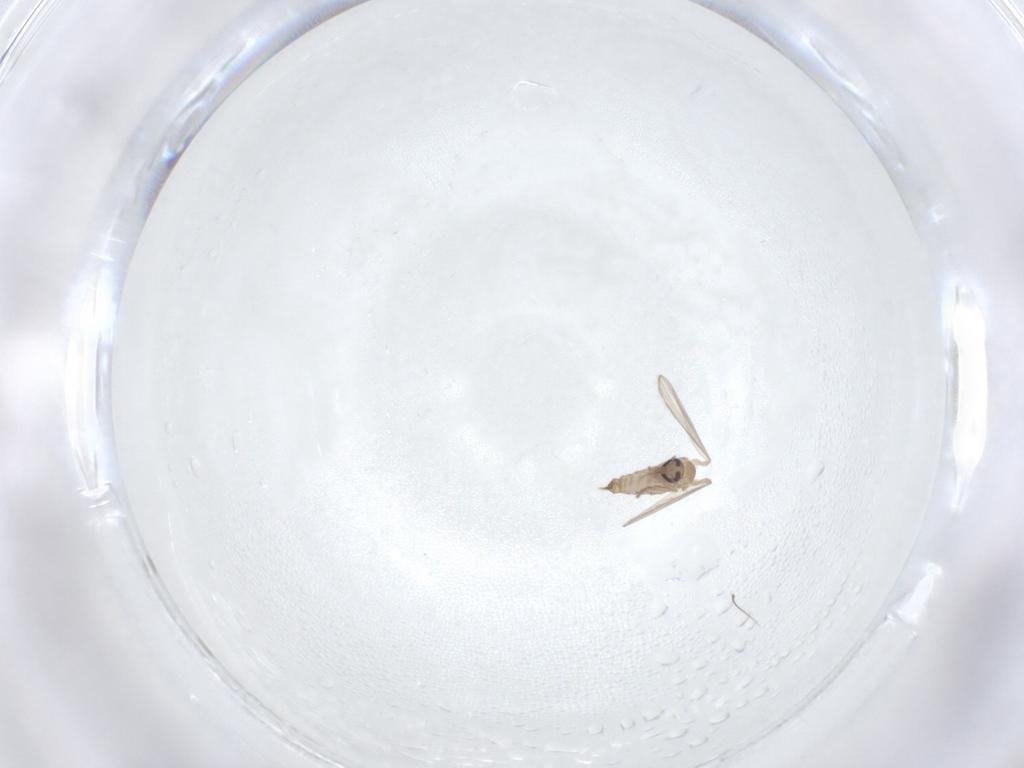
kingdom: Animalia
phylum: Arthropoda
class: Insecta
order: Diptera
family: Psychodidae
